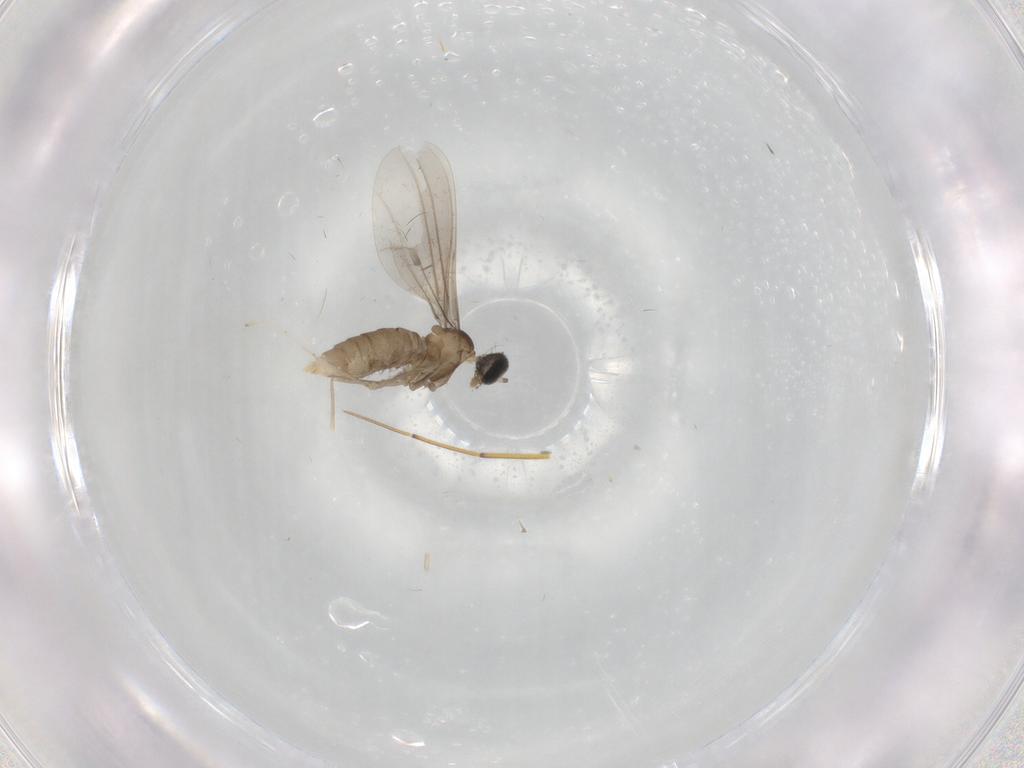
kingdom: Animalia
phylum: Arthropoda
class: Insecta
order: Diptera
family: Cecidomyiidae
